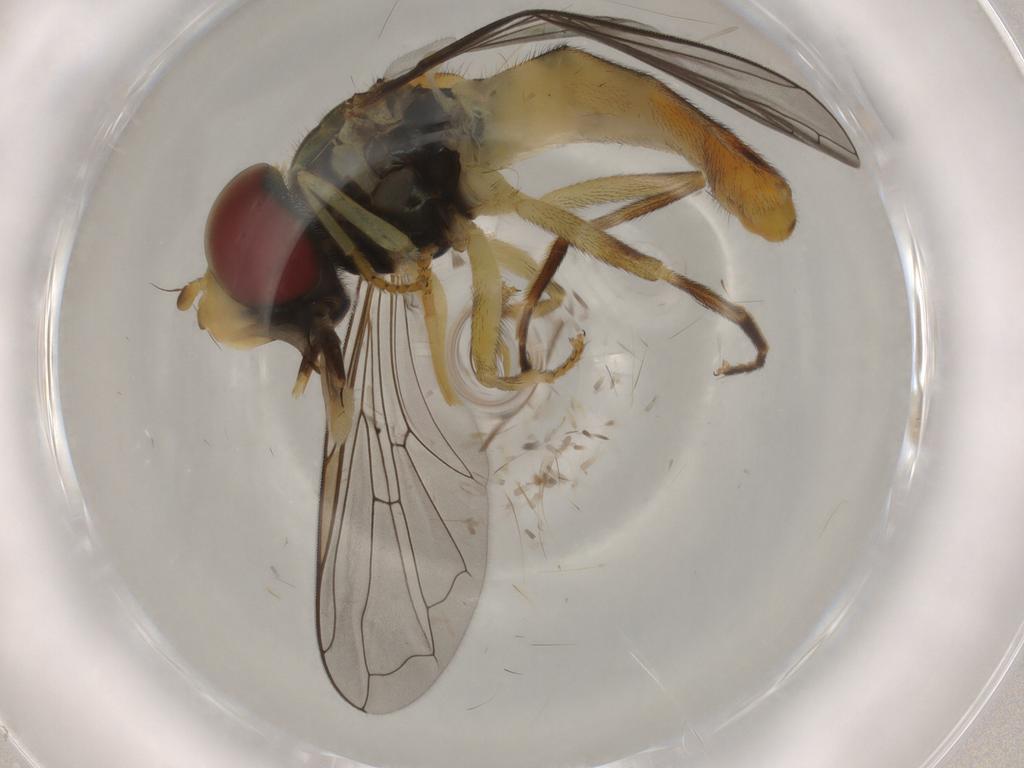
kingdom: Animalia
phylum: Arthropoda
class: Insecta
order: Diptera
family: Syrphidae
